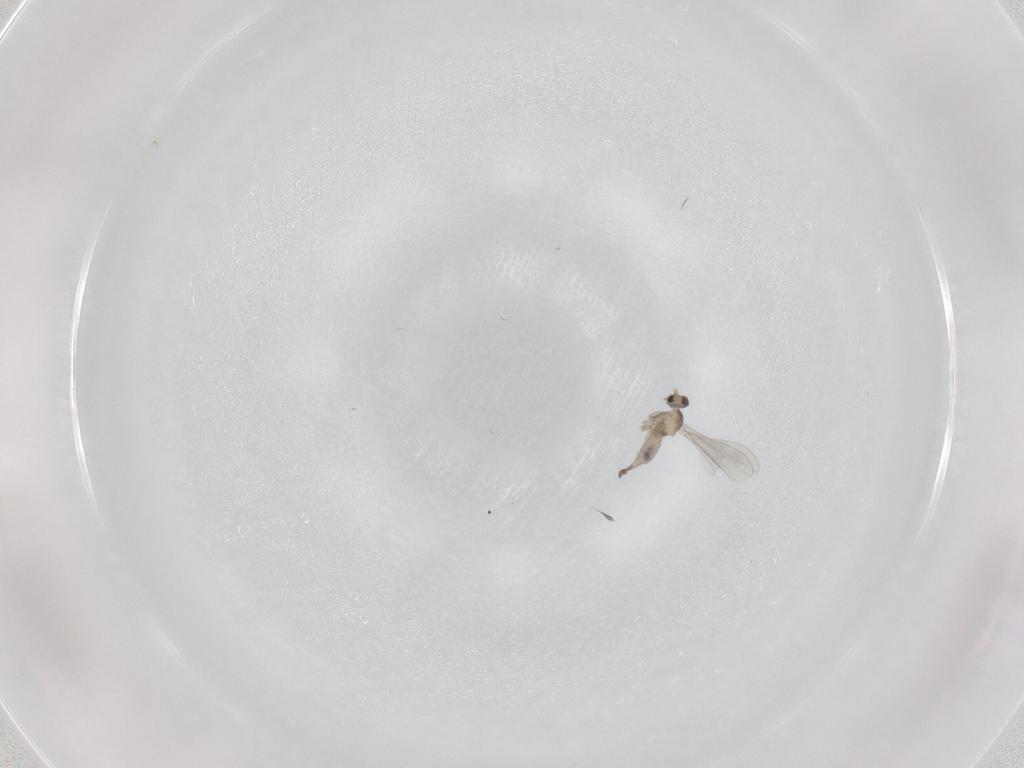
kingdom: Animalia
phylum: Arthropoda
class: Insecta
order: Diptera
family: Cecidomyiidae
